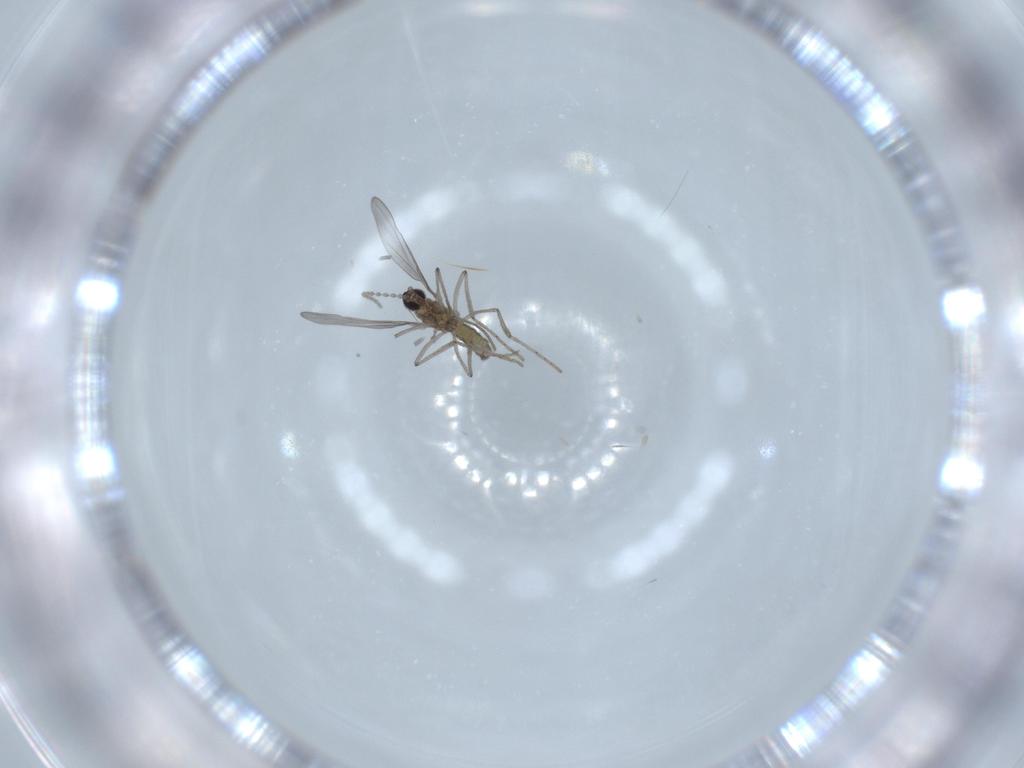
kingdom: Animalia
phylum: Arthropoda
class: Insecta
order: Diptera
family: Cecidomyiidae
